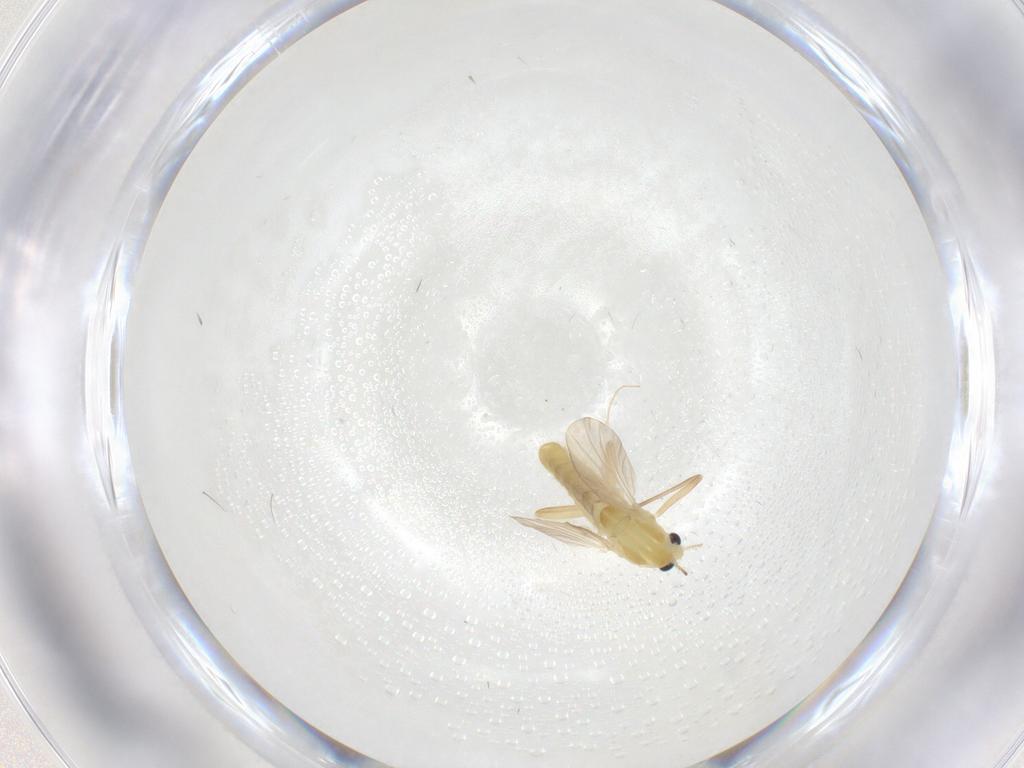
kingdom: Animalia
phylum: Arthropoda
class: Insecta
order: Diptera
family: Chironomidae
